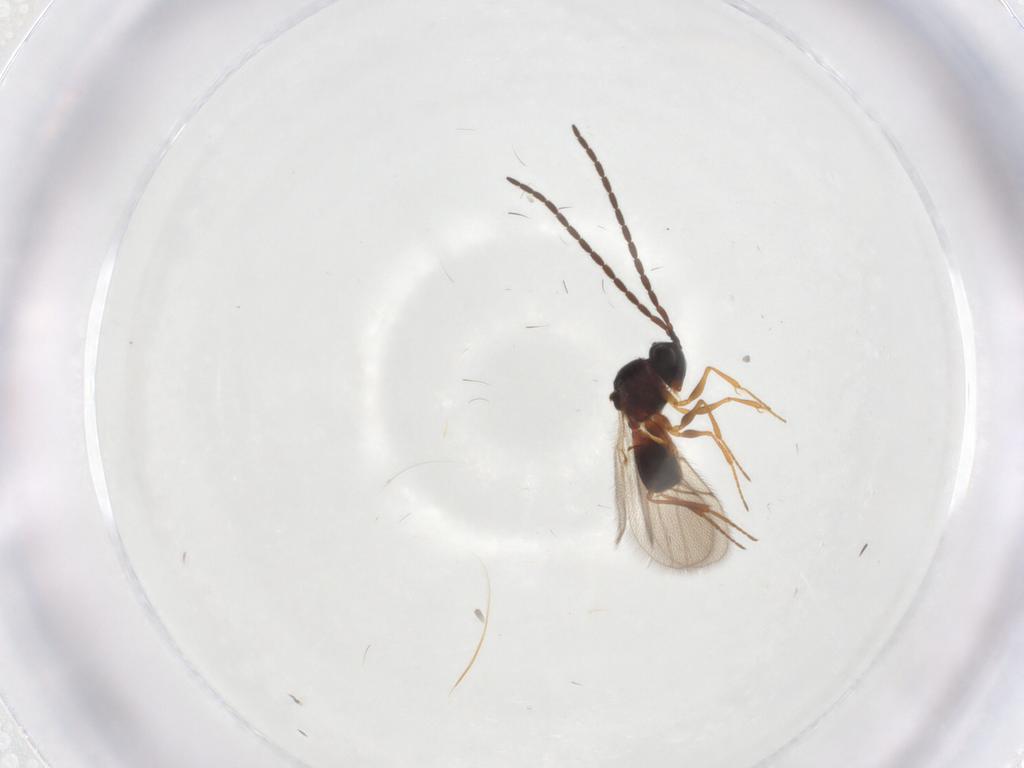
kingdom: Animalia
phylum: Arthropoda
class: Insecta
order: Hymenoptera
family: Figitidae
